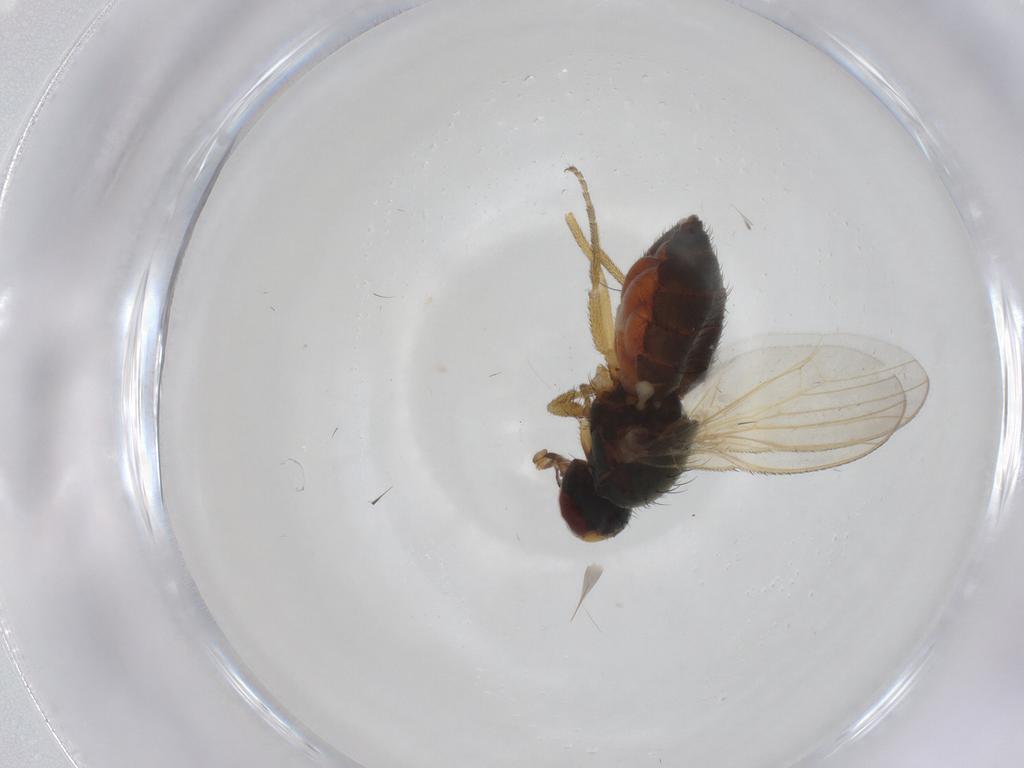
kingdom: Animalia
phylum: Arthropoda
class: Insecta
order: Diptera
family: Heleomyzidae
